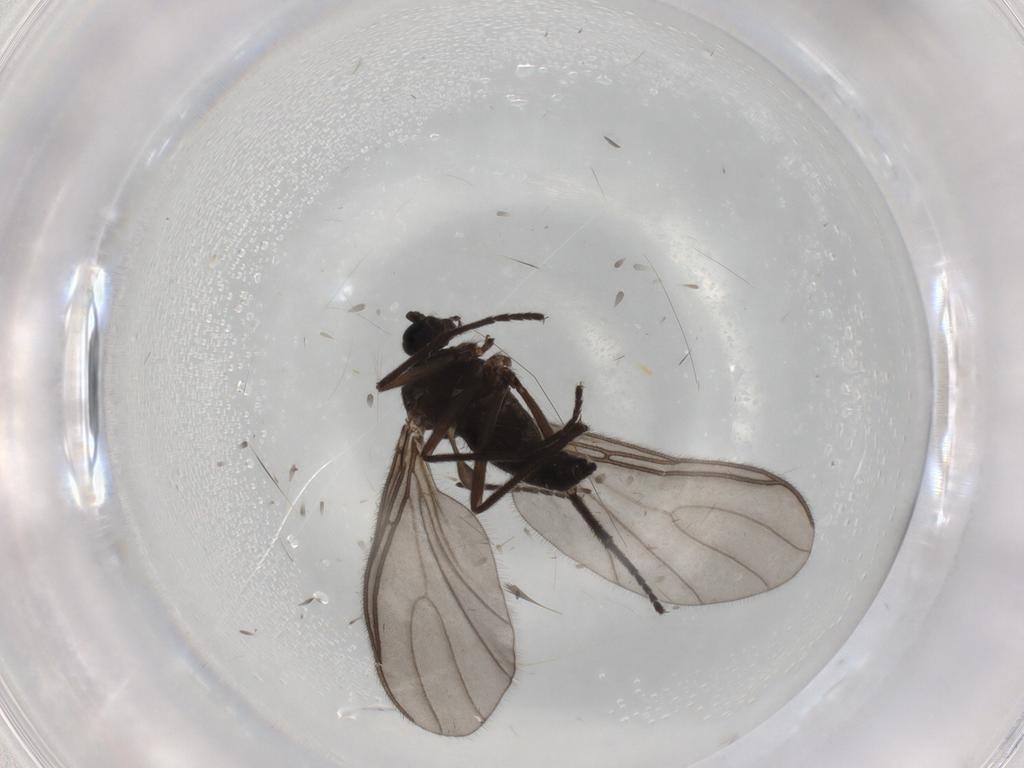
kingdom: Animalia
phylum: Arthropoda
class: Insecta
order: Diptera
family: Sciaridae
